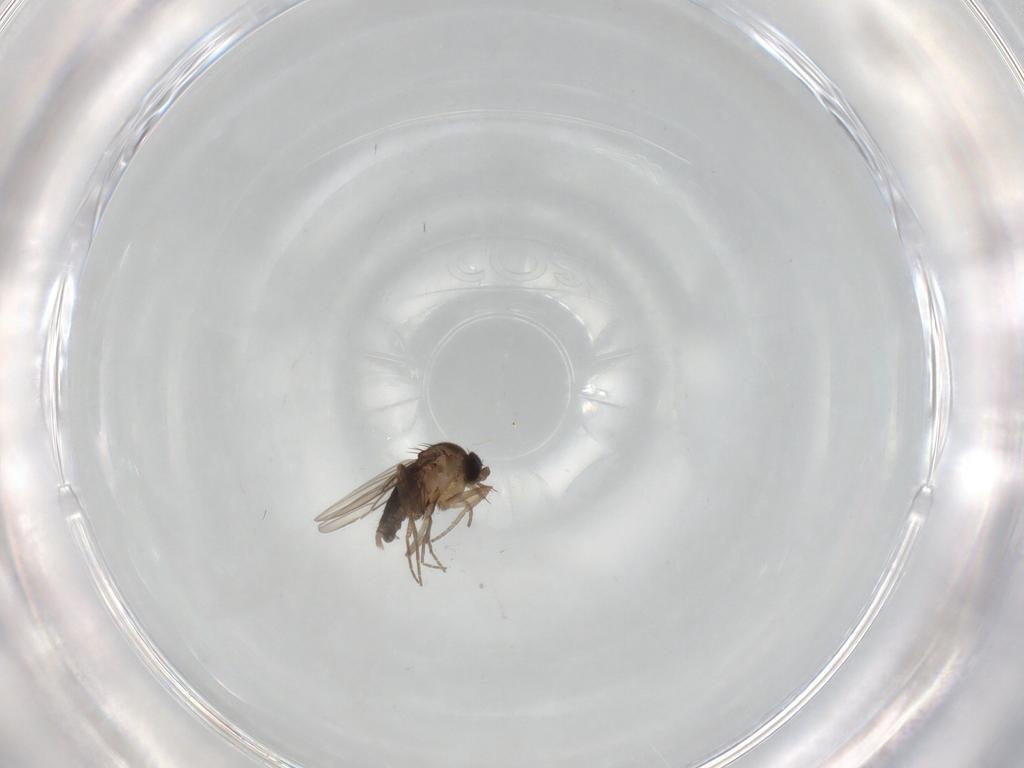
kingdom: Animalia
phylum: Arthropoda
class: Insecta
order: Diptera
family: Phoridae
